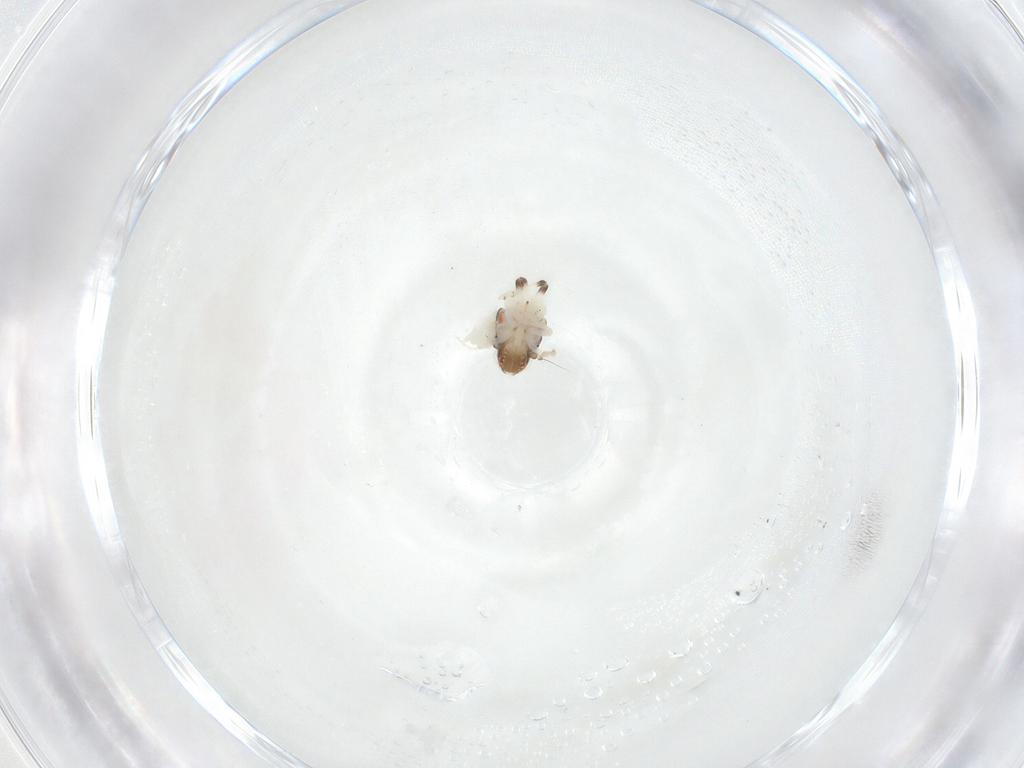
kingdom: Animalia
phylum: Arthropoda
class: Insecta
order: Hemiptera
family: Nogodinidae
